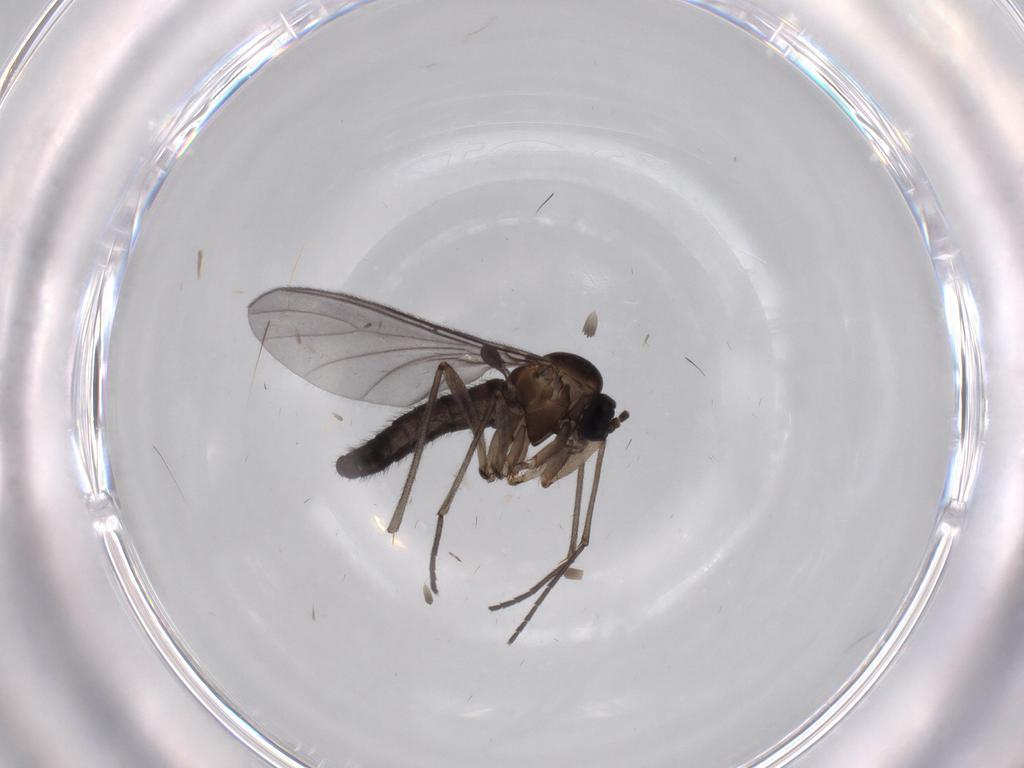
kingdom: Animalia
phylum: Arthropoda
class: Insecta
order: Diptera
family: Sciaridae
